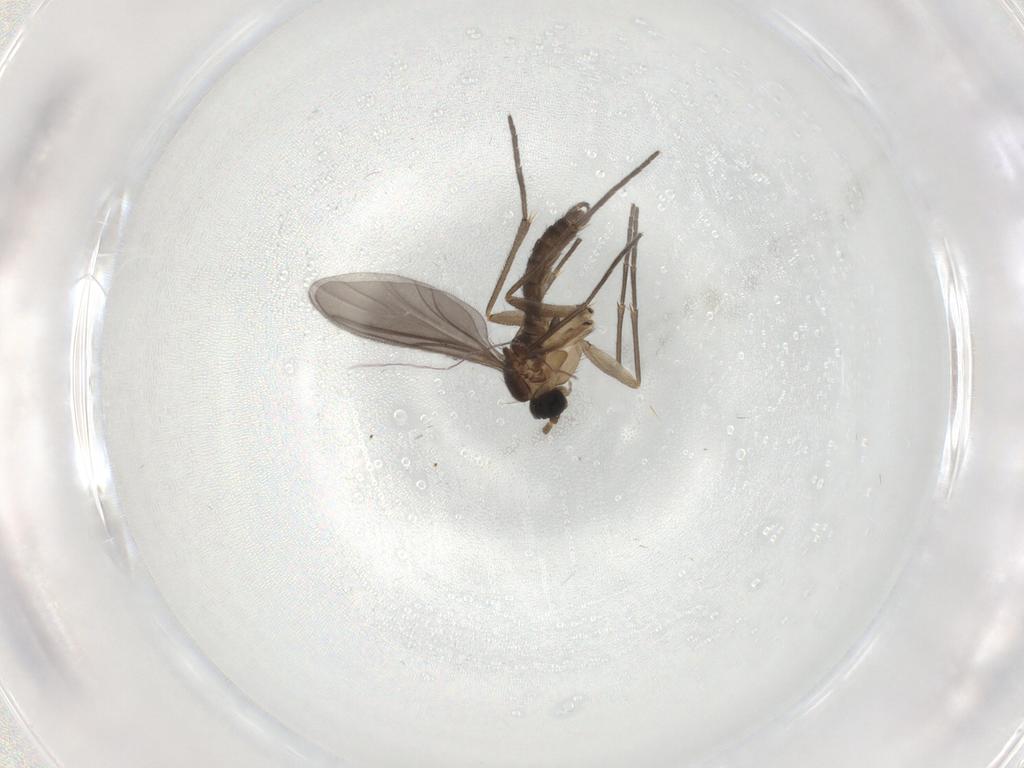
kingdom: Animalia
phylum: Arthropoda
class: Insecta
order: Diptera
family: Sciaridae
